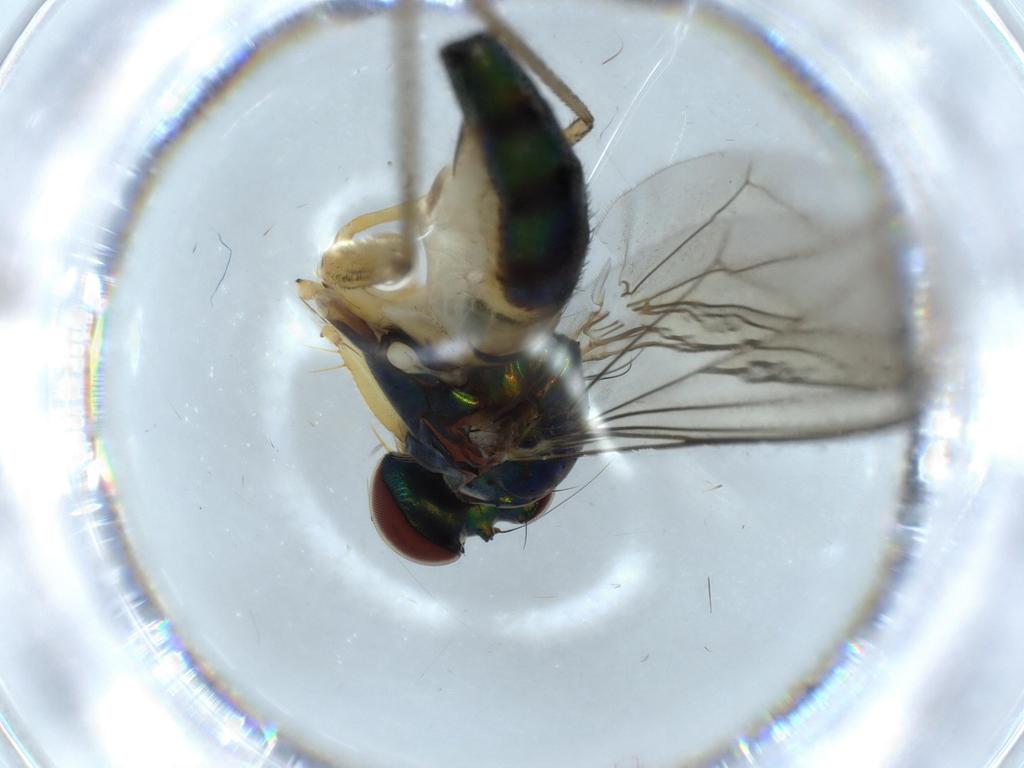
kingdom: Animalia
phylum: Arthropoda
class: Insecta
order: Diptera
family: Dolichopodidae
